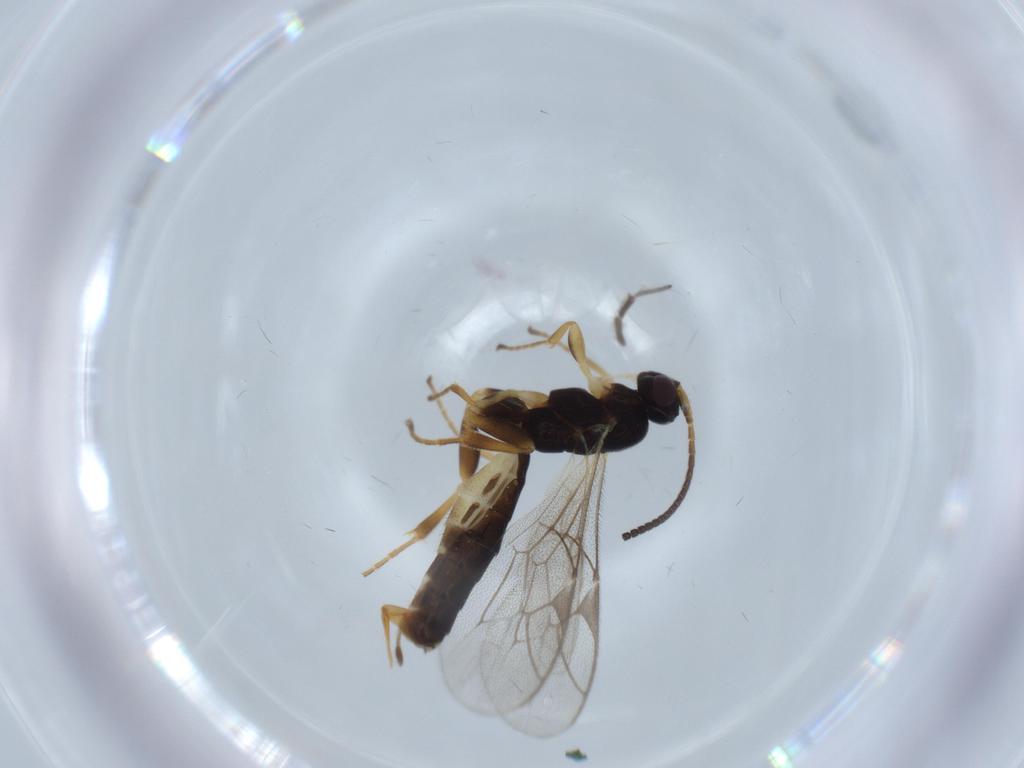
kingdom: Animalia
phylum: Arthropoda
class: Insecta
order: Hymenoptera
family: Ichneumonidae
